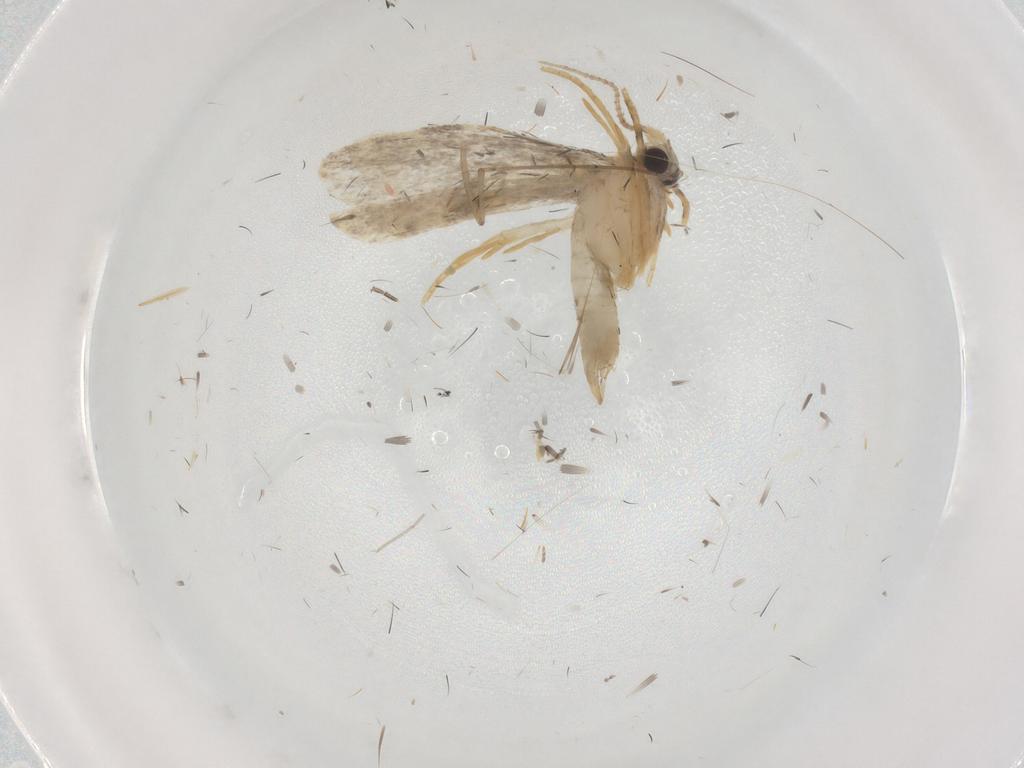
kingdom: Animalia
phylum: Arthropoda
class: Insecta
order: Lepidoptera
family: Psychidae
